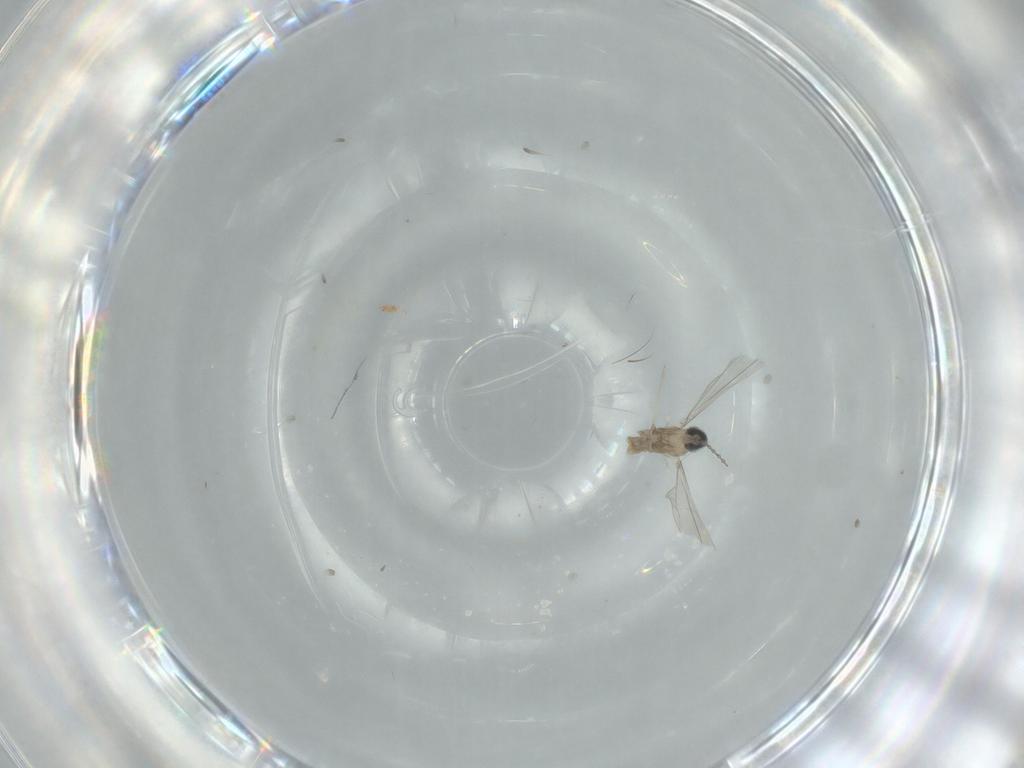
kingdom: Animalia
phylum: Arthropoda
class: Insecta
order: Diptera
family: Cecidomyiidae
